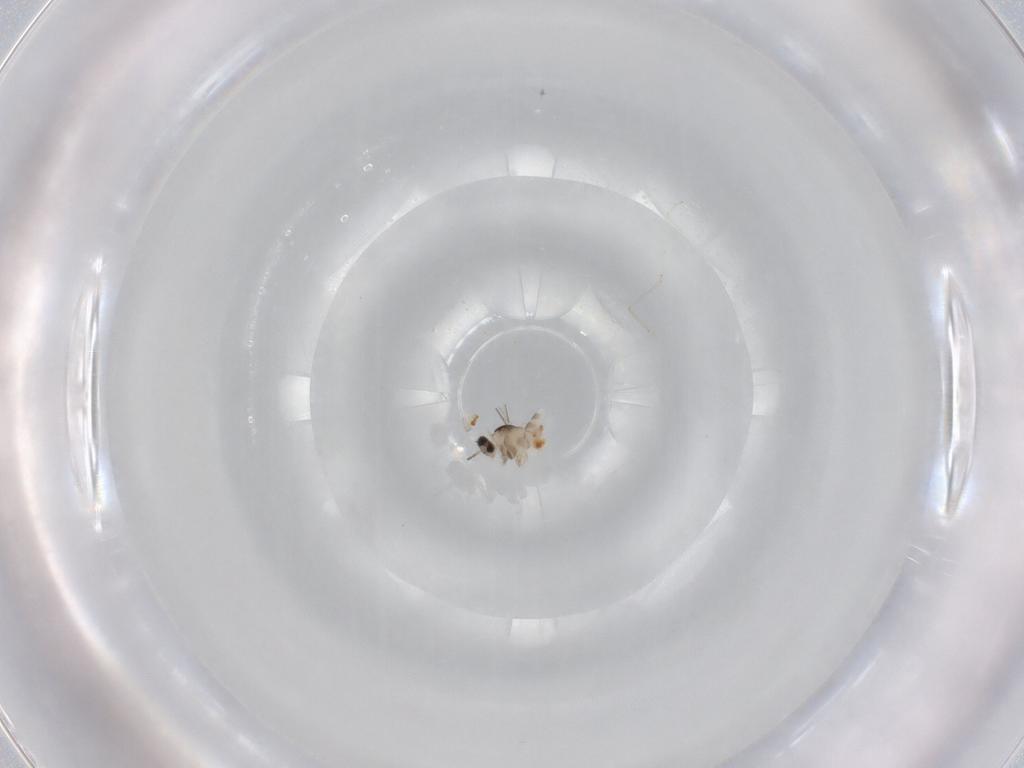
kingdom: Animalia
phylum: Arthropoda
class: Insecta
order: Diptera
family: Cecidomyiidae
